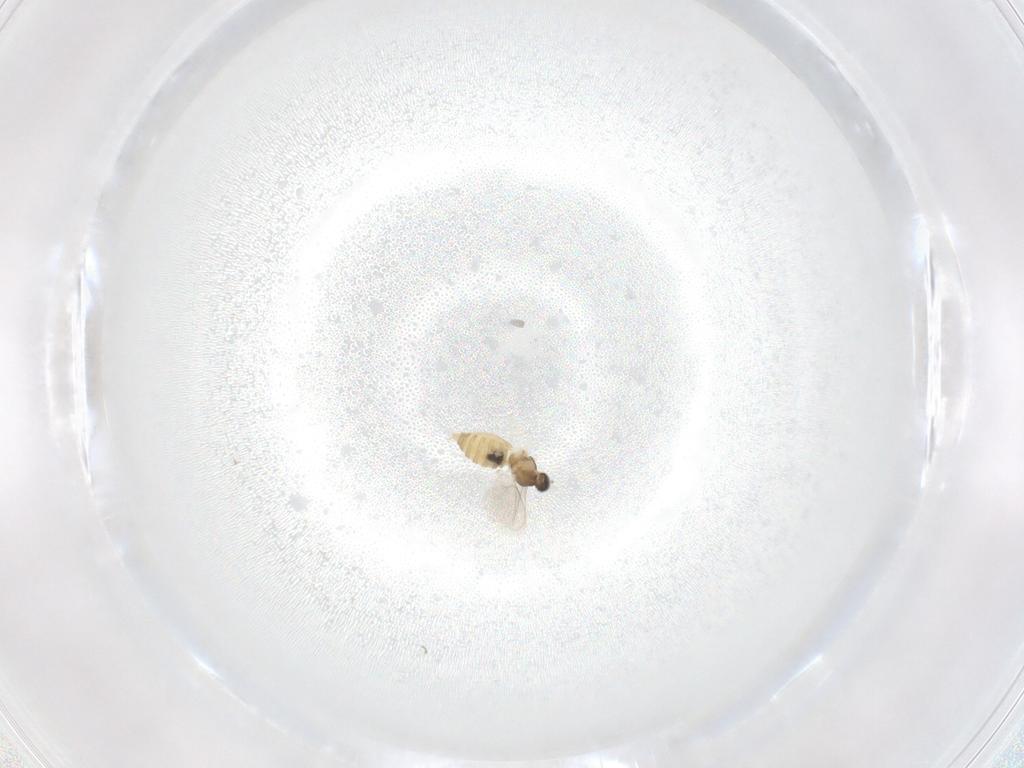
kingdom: Animalia
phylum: Arthropoda
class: Insecta
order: Diptera
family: Cecidomyiidae
